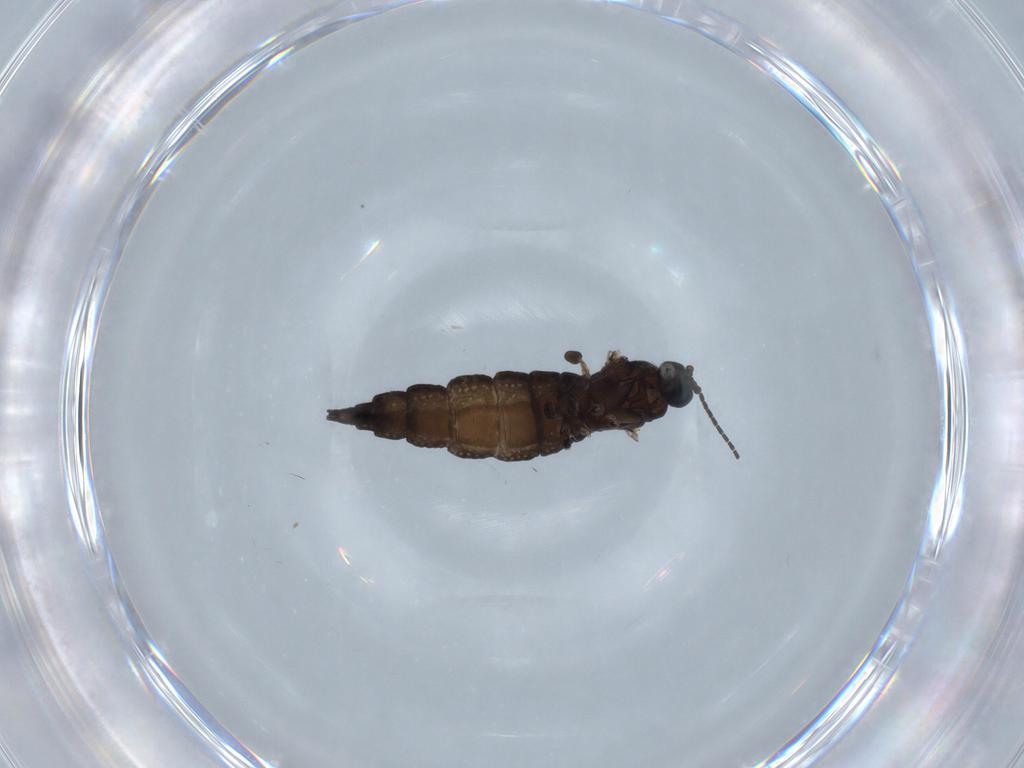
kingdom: Animalia
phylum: Arthropoda
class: Insecta
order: Diptera
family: Sciaridae
